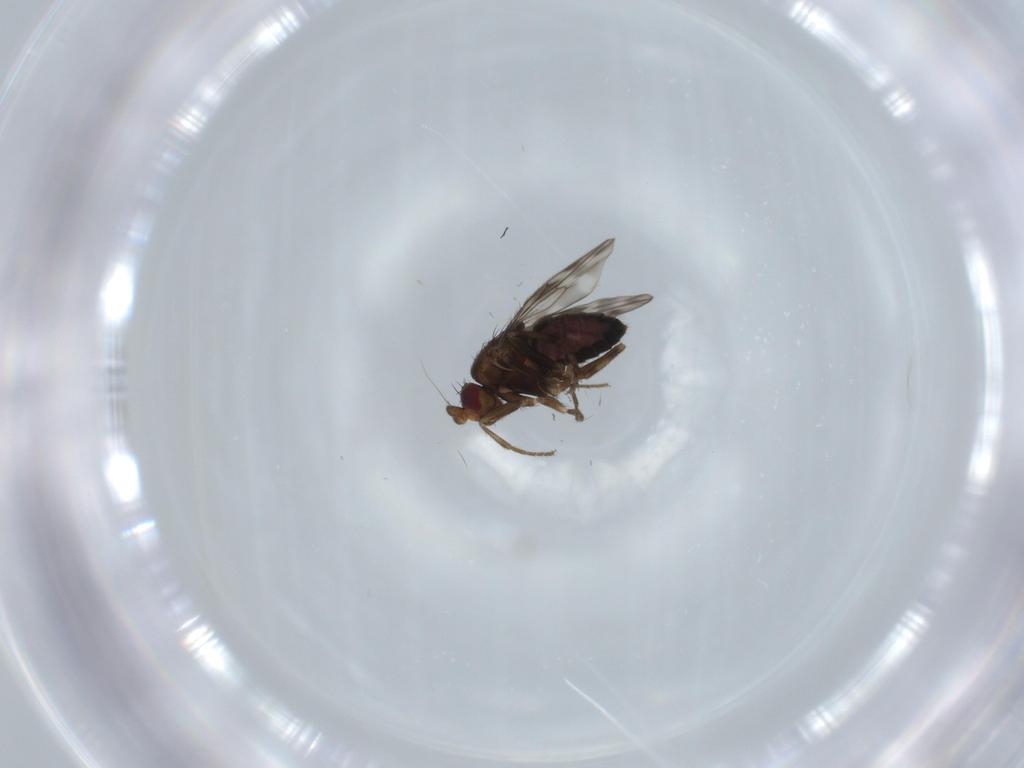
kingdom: Animalia
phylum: Arthropoda
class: Insecta
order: Diptera
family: Sphaeroceridae
